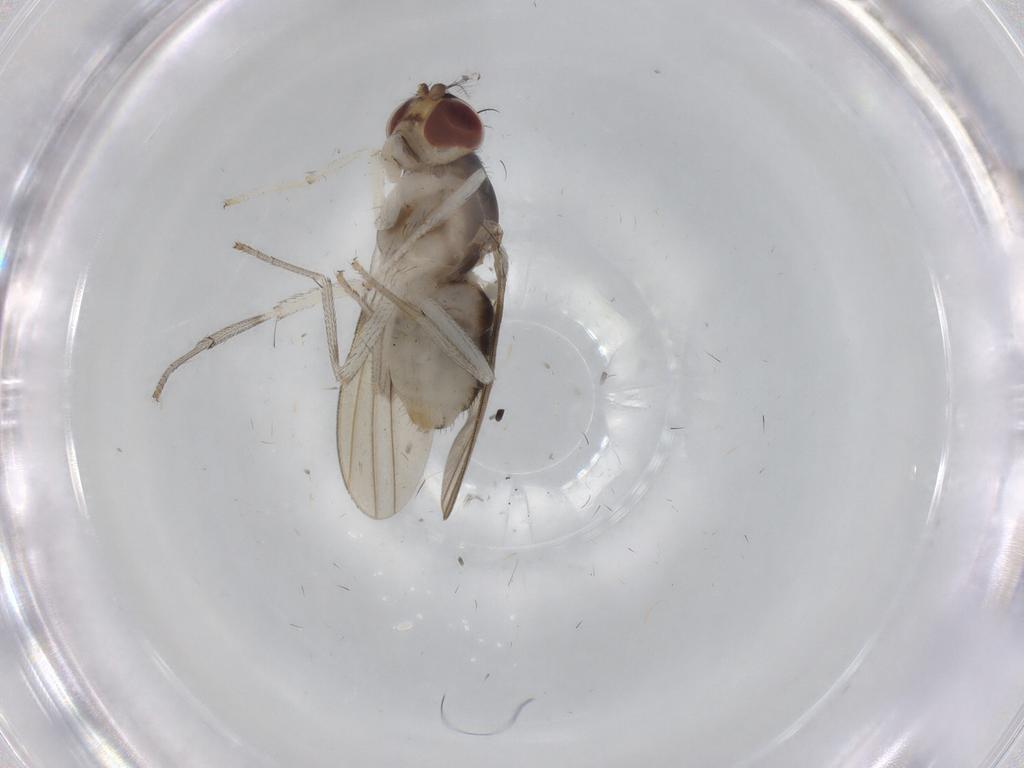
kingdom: Animalia
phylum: Arthropoda
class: Insecta
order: Diptera
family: Dolichopodidae
